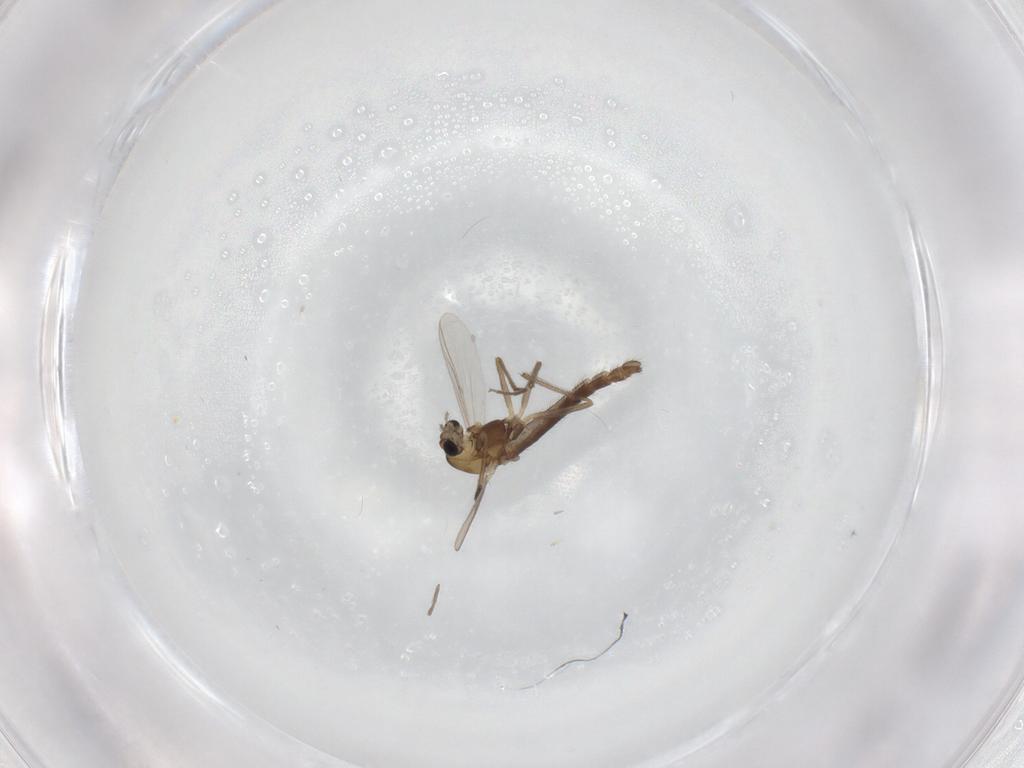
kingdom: Animalia
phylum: Arthropoda
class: Insecta
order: Diptera
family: Chironomidae
